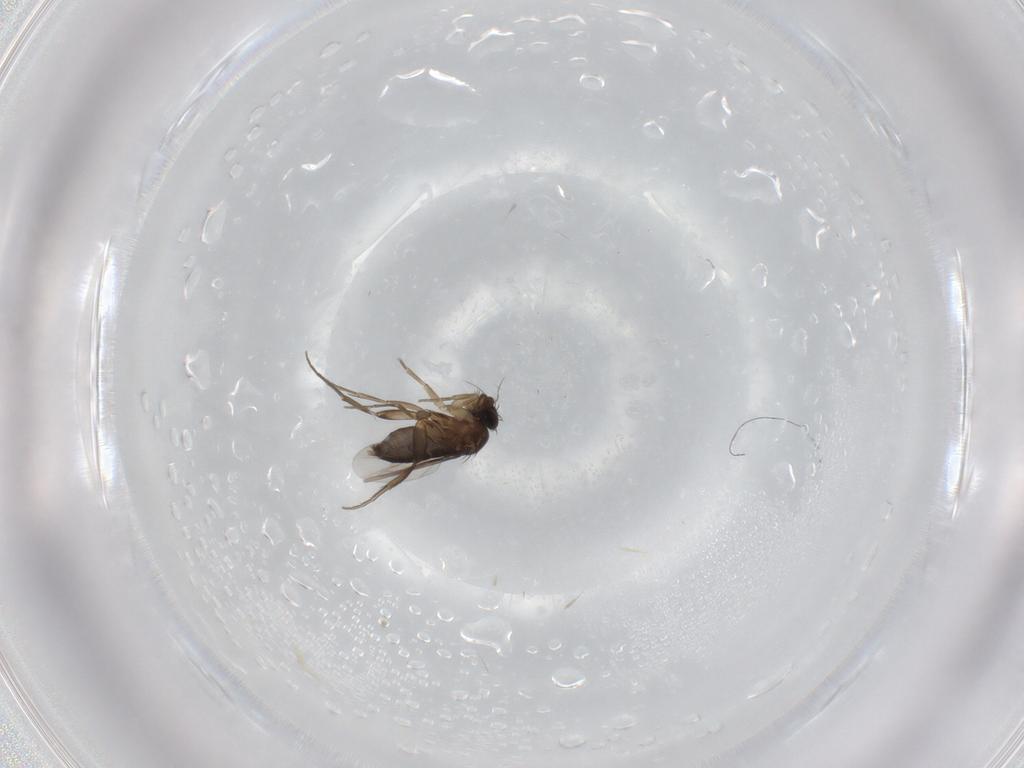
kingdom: Animalia
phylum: Arthropoda
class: Insecta
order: Diptera
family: Phoridae
